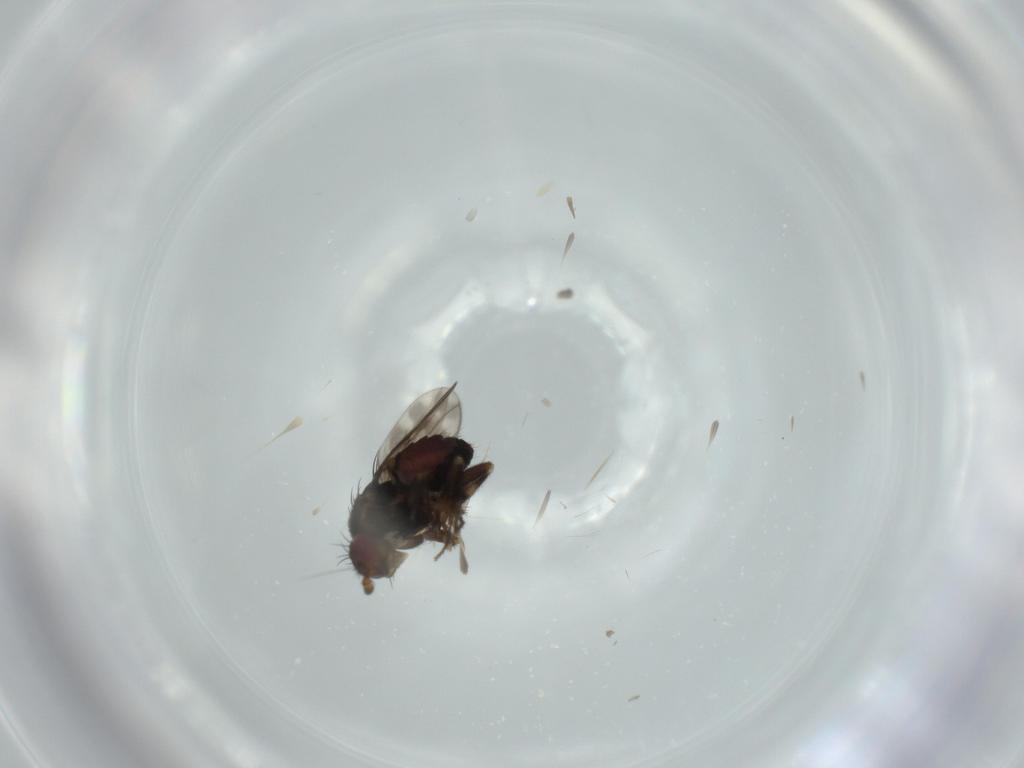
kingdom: Animalia
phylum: Arthropoda
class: Insecta
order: Diptera
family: Sphaeroceridae
